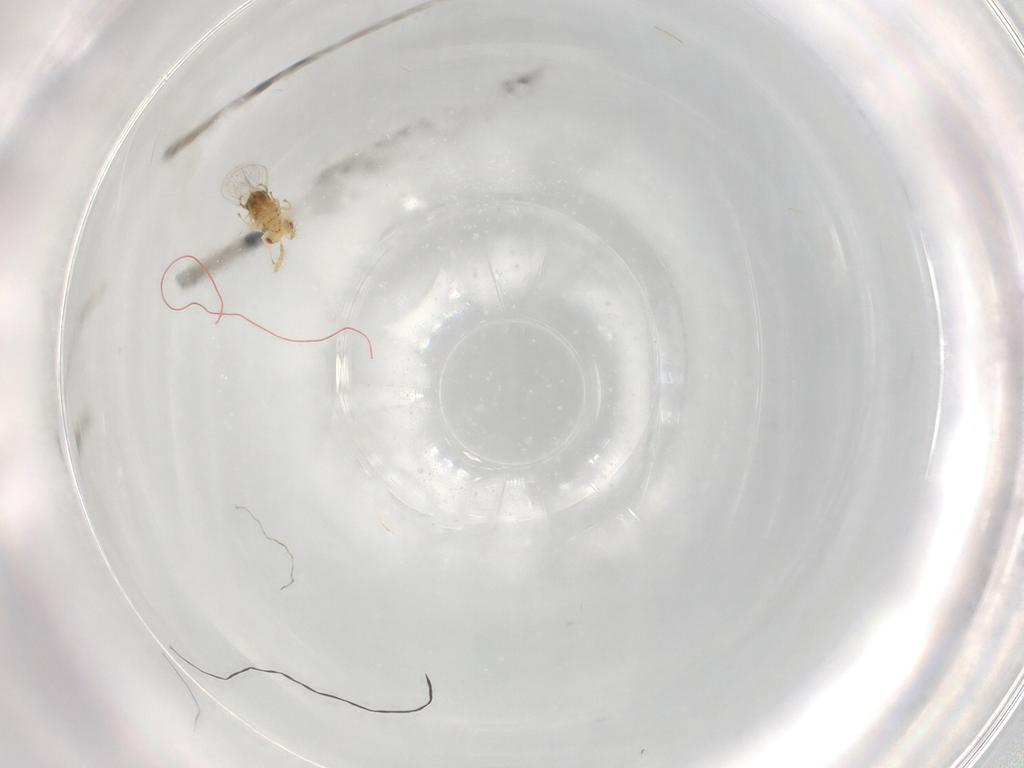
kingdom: Animalia
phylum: Arthropoda
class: Insecta
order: Hymenoptera
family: Trichogrammatidae
